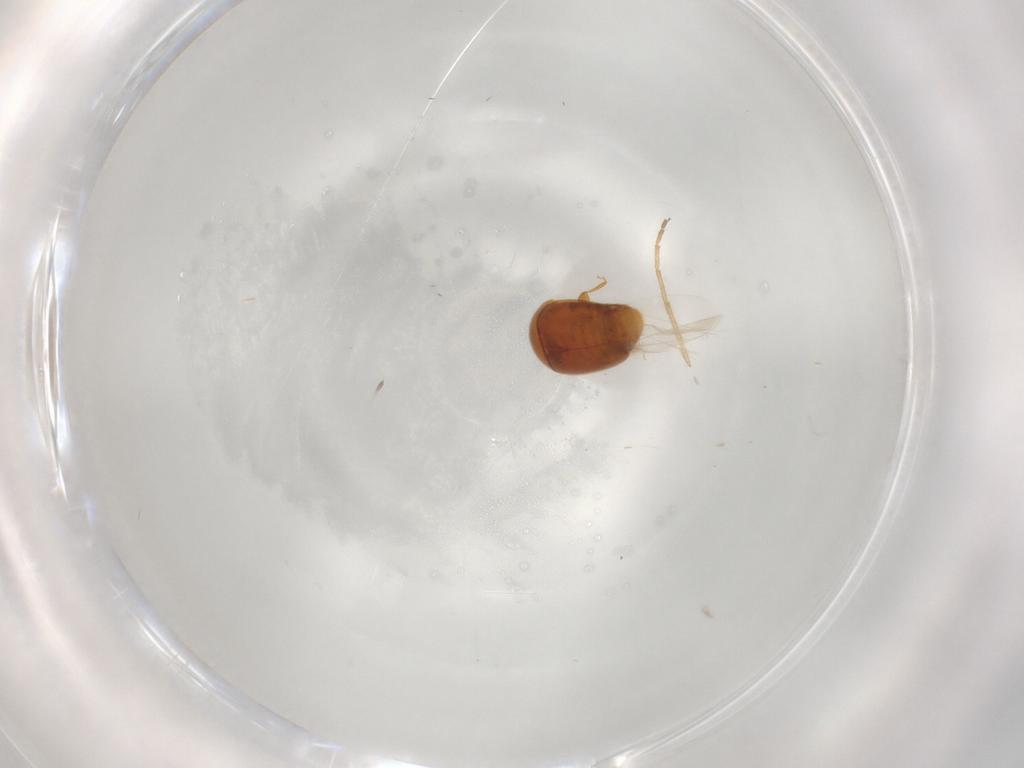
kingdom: Animalia
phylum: Arthropoda
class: Insecta
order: Coleoptera
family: Corylophidae
